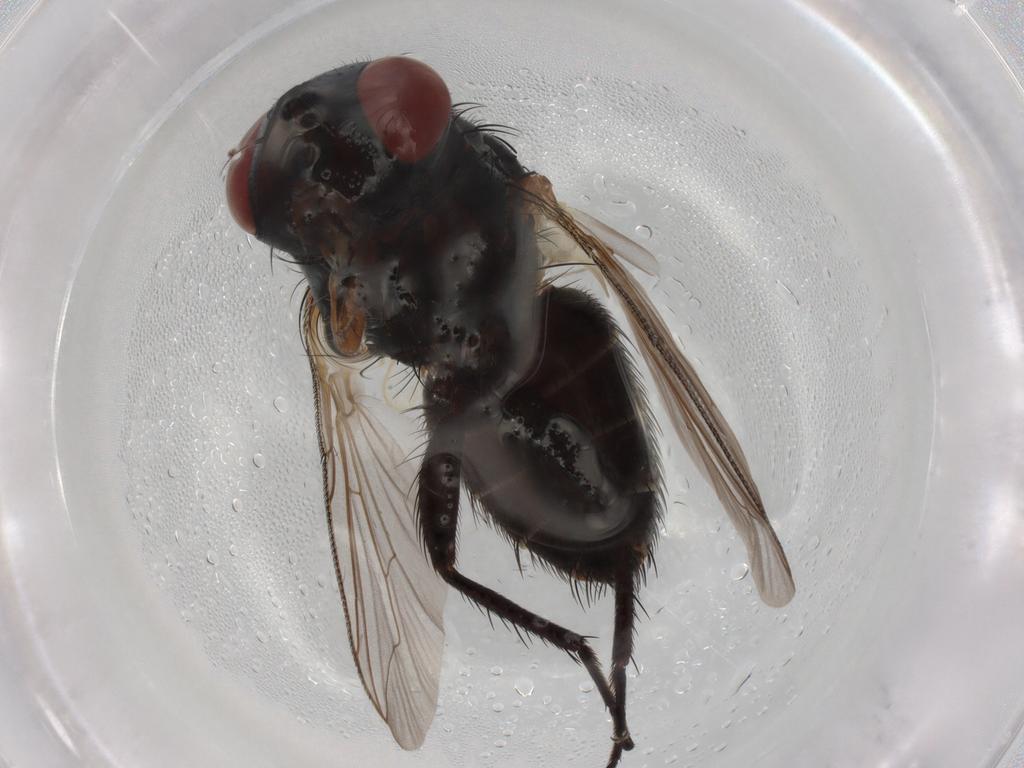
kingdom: Animalia
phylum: Arthropoda
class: Insecta
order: Diptera
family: Sarcophagidae
